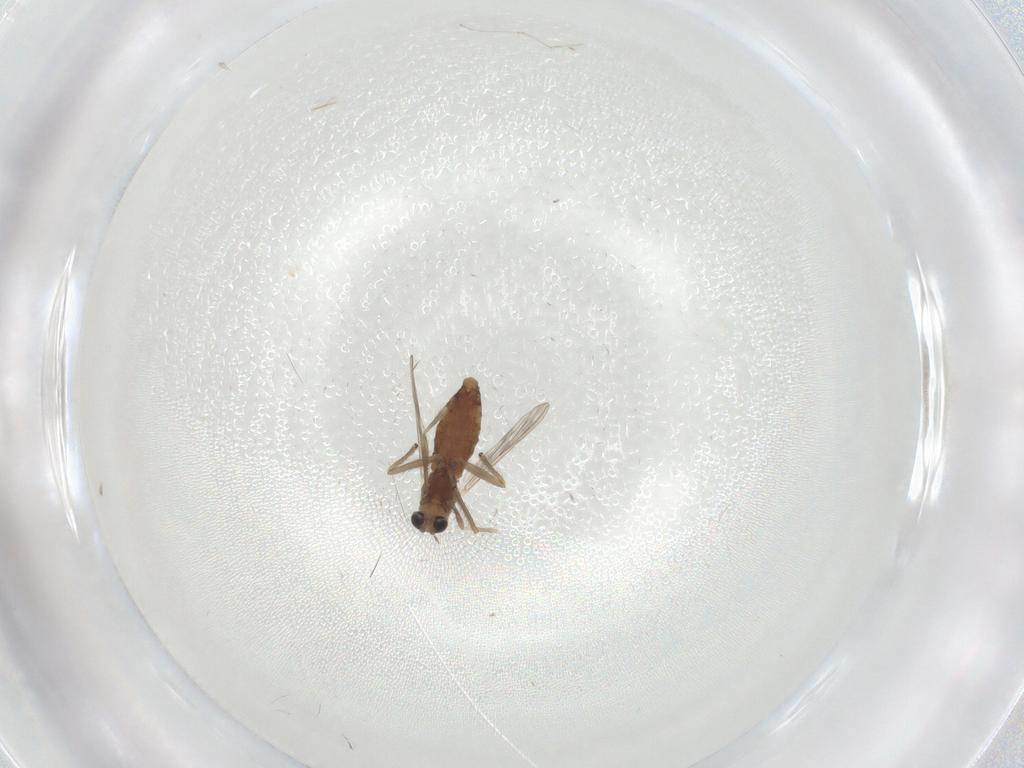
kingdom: Animalia
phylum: Arthropoda
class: Insecta
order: Diptera
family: Chironomidae
